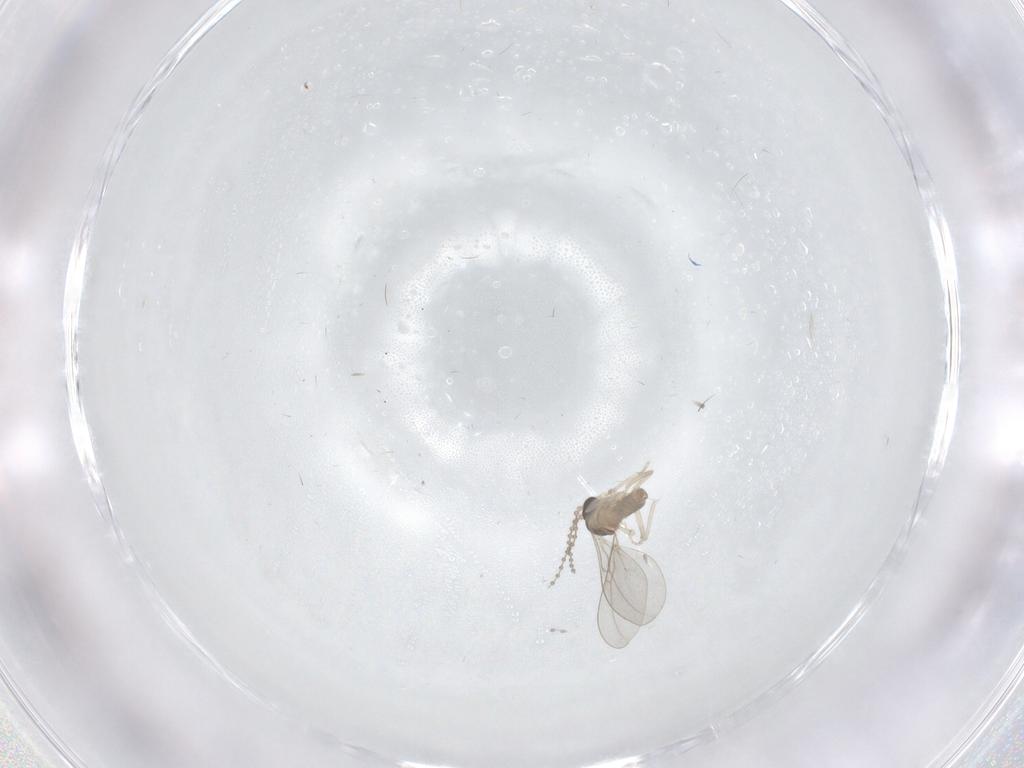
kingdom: Animalia
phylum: Arthropoda
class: Insecta
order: Diptera
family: Cecidomyiidae
